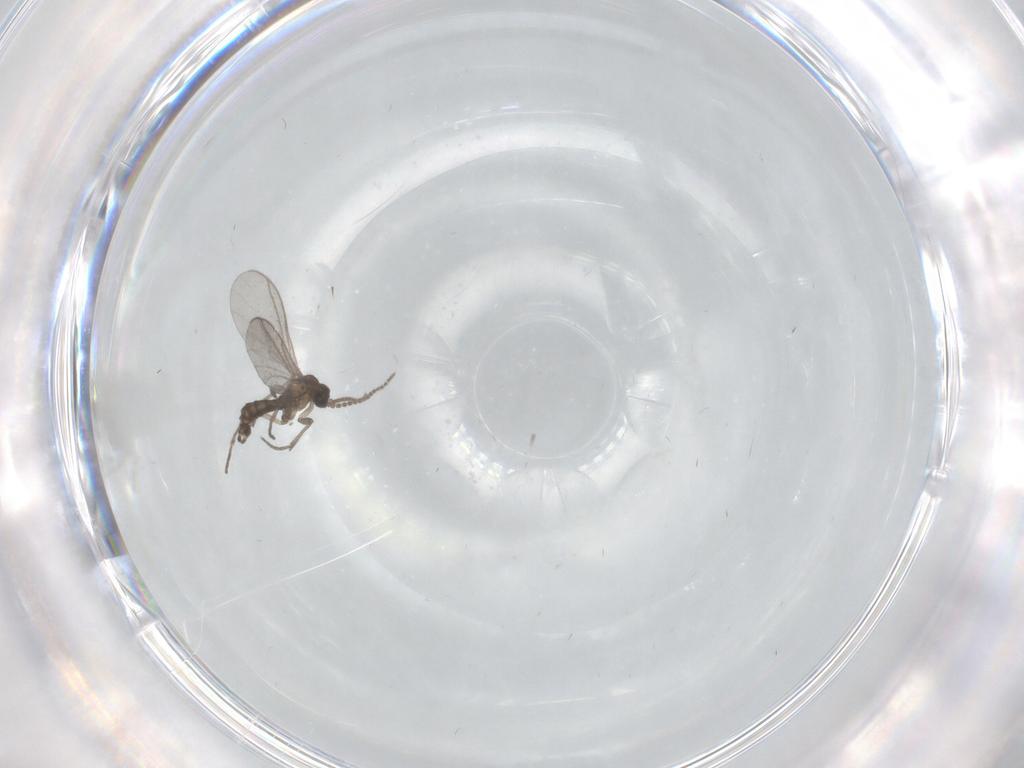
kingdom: Animalia
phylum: Arthropoda
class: Insecta
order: Diptera
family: Sciaridae
